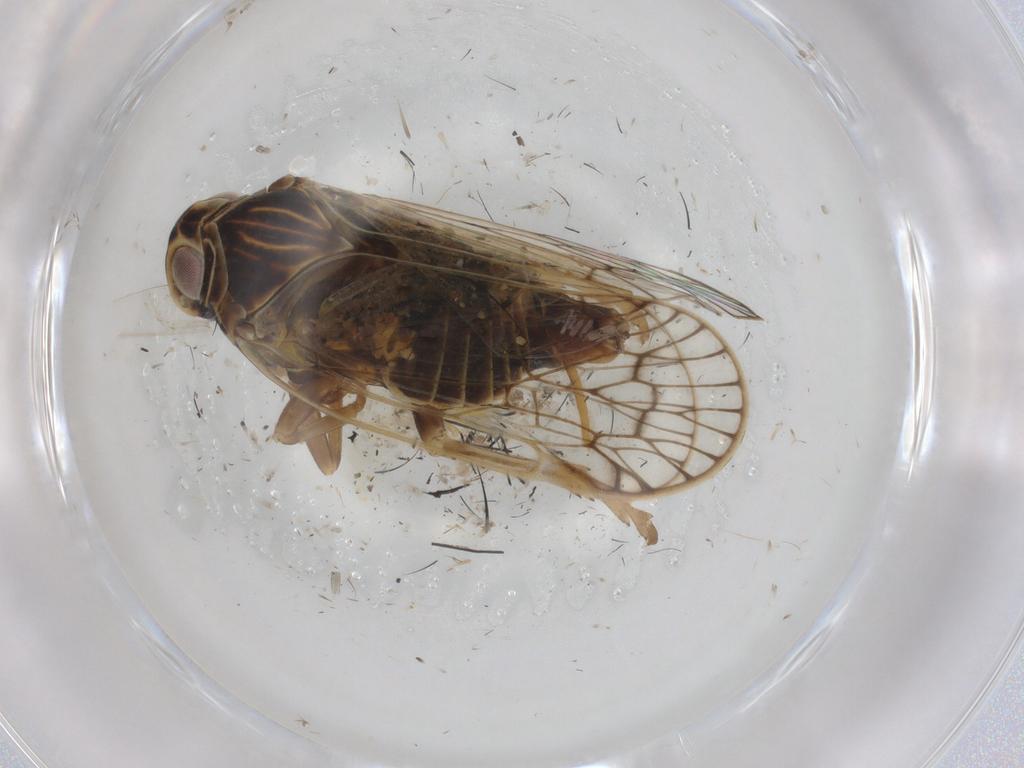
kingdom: Animalia
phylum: Arthropoda
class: Insecta
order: Hemiptera
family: Cixiidae
